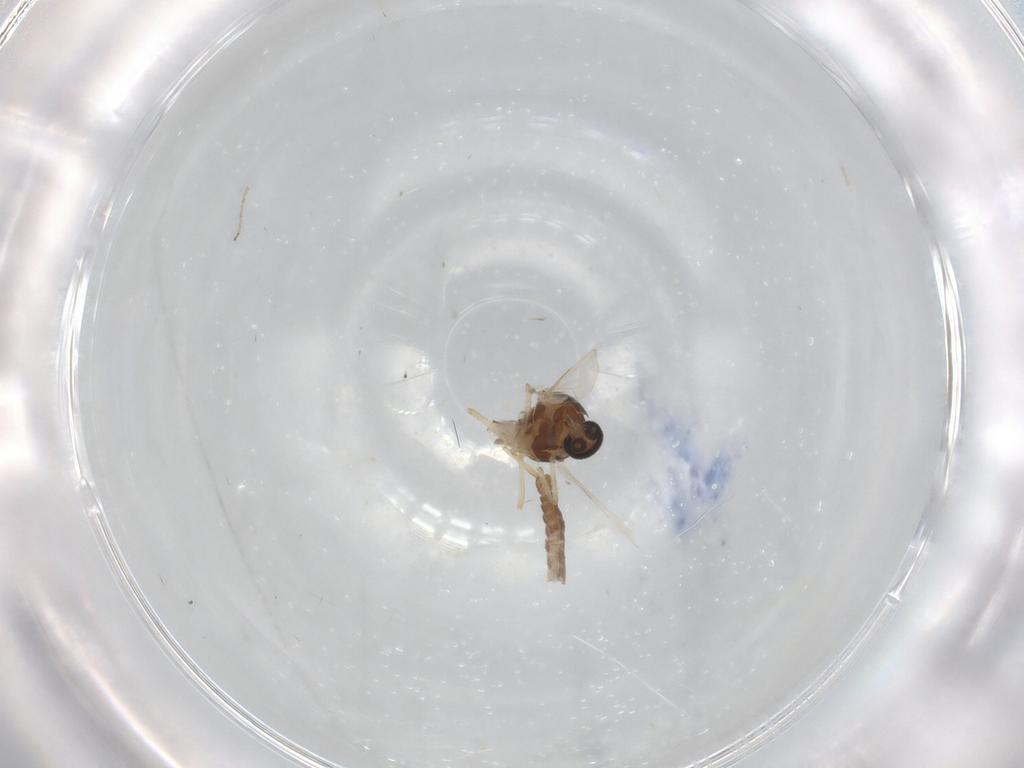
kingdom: Animalia
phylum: Arthropoda
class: Insecta
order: Diptera
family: Ceratopogonidae
